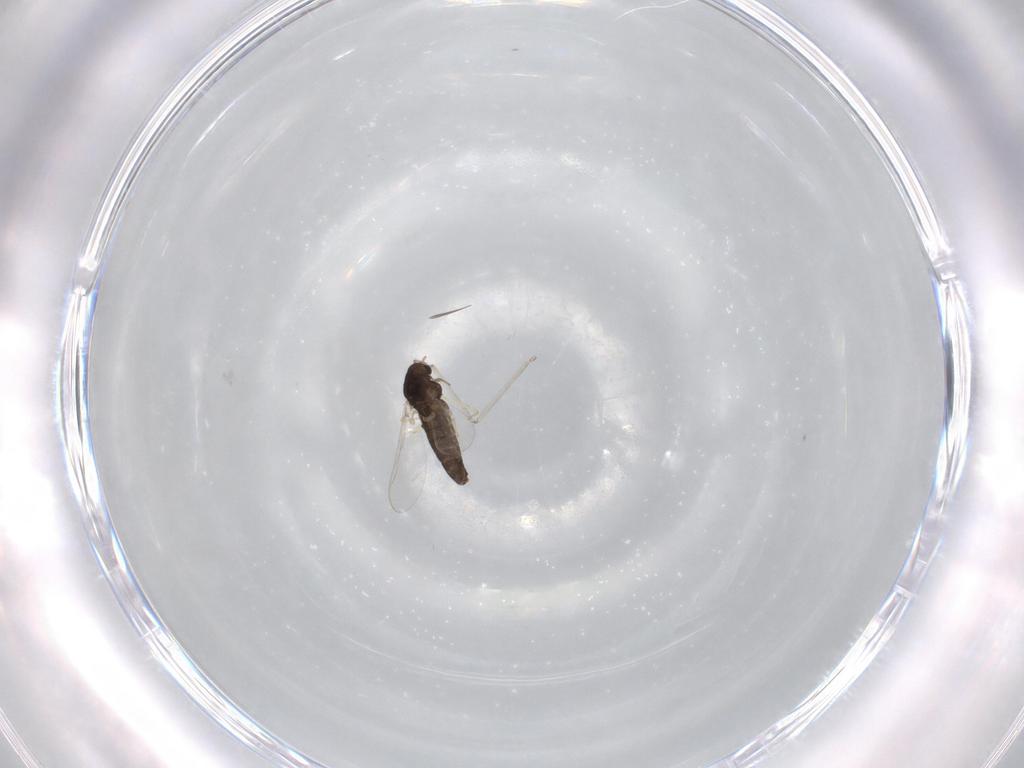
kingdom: Animalia
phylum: Arthropoda
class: Insecta
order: Diptera
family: Chironomidae
